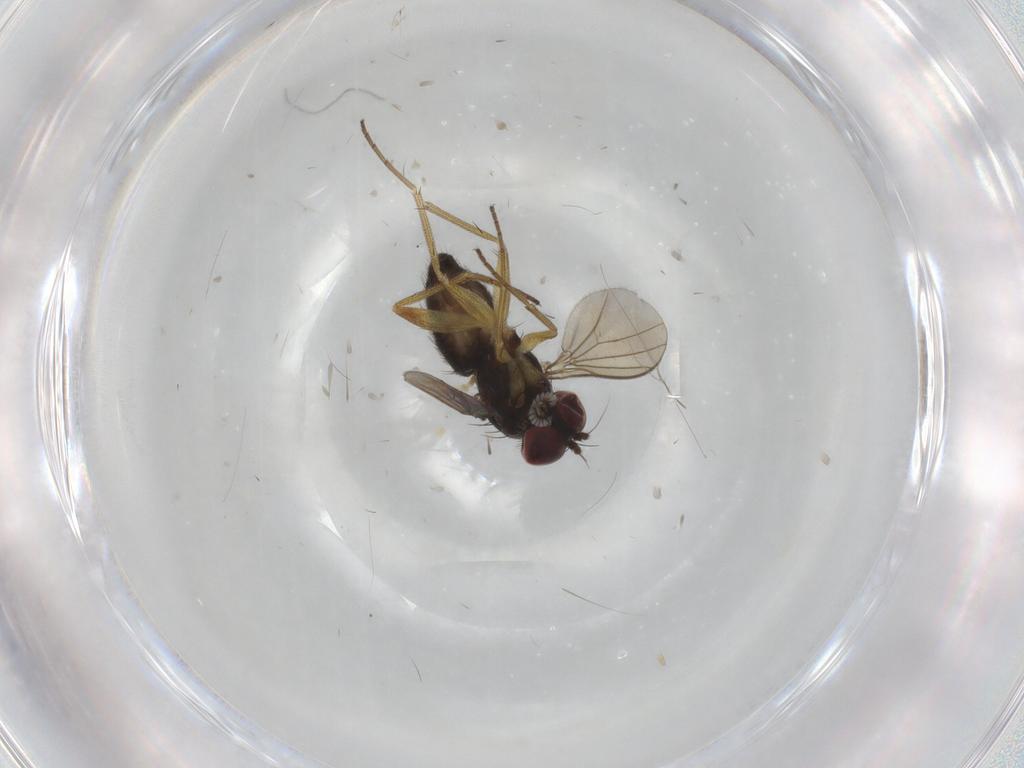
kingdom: Animalia
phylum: Arthropoda
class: Insecta
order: Diptera
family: Dolichopodidae
